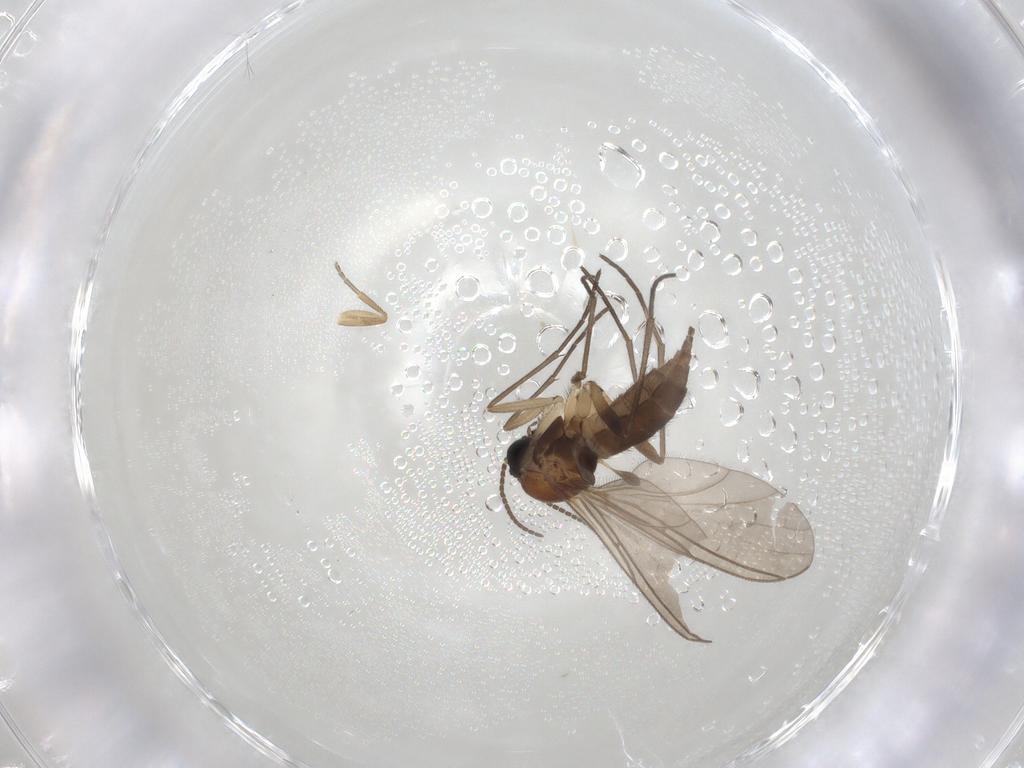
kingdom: Animalia
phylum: Arthropoda
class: Insecta
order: Diptera
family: Sciaridae
